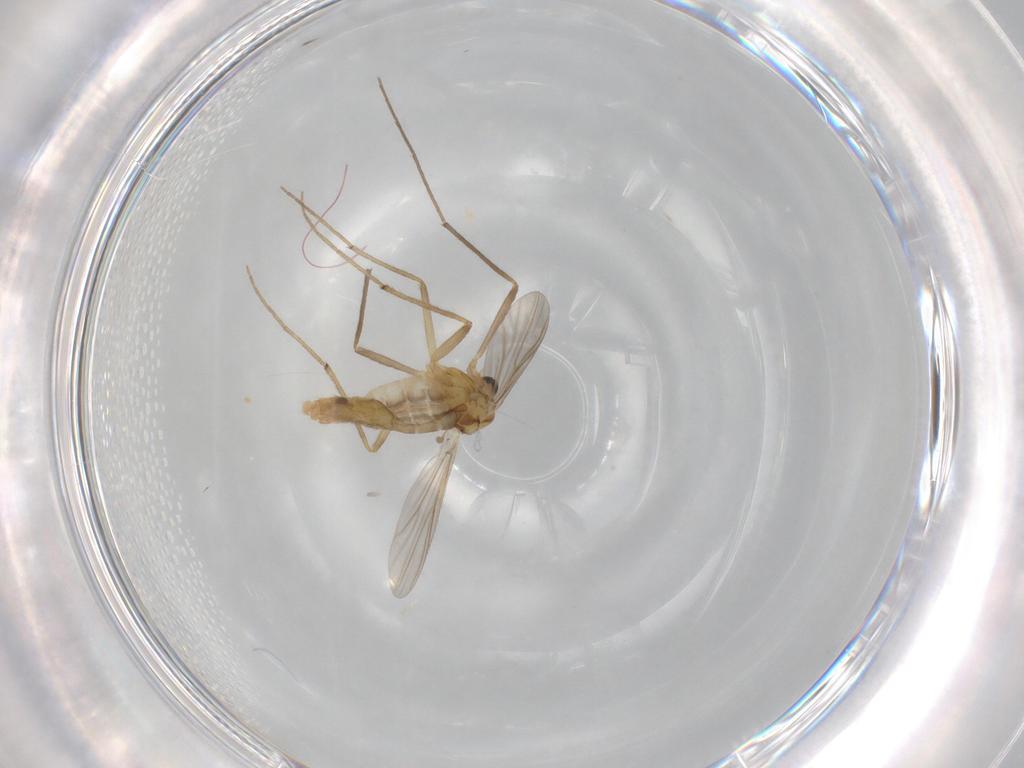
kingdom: Animalia
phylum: Arthropoda
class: Insecta
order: Diptera
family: Chironomidae
